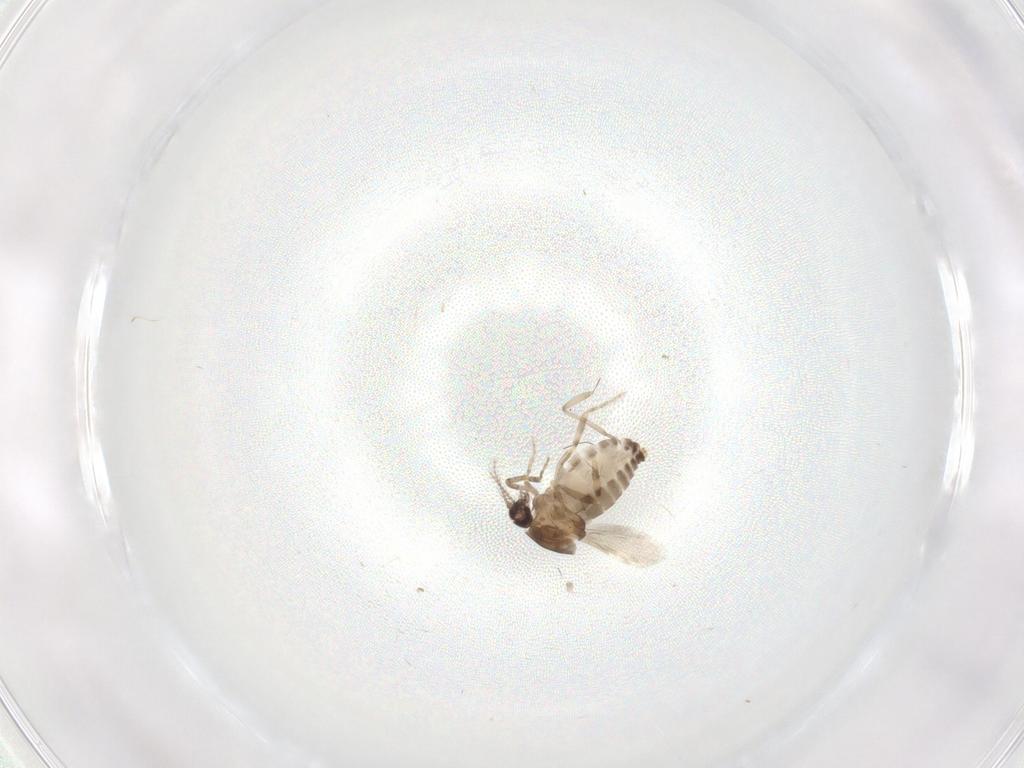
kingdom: Animalia
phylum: Arthropoda
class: Insecta
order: Diptera
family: Ceratopogonidae
